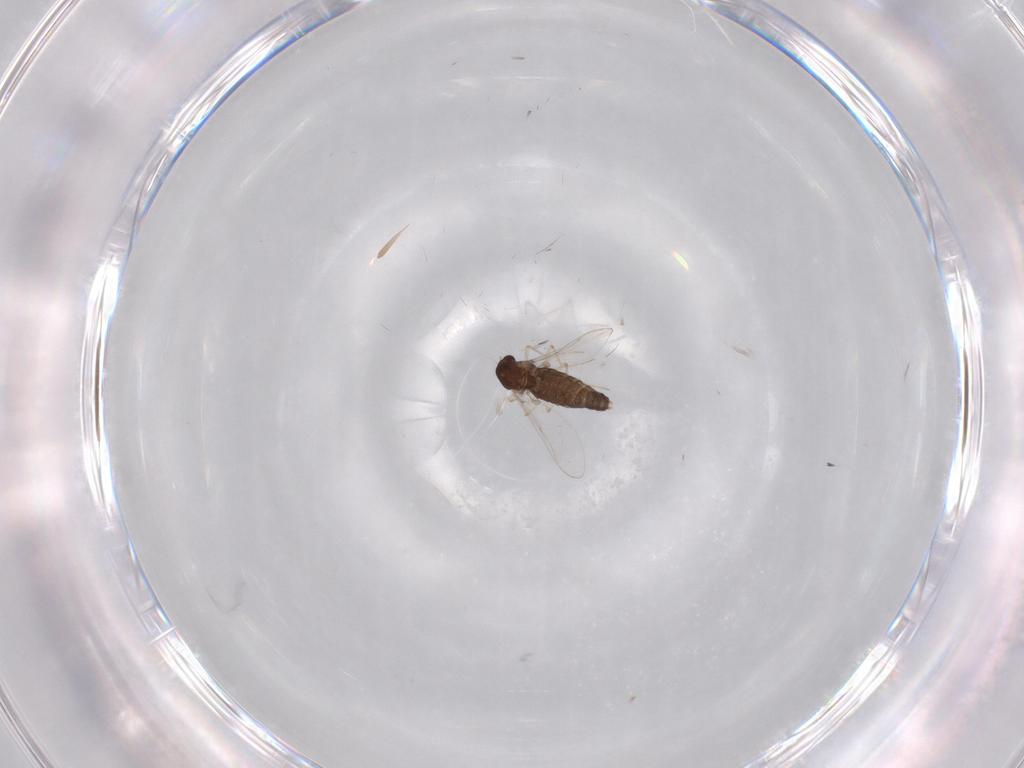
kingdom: Animalia
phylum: Arthropoda
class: Insecta
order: Diptera
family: Chironomidae
